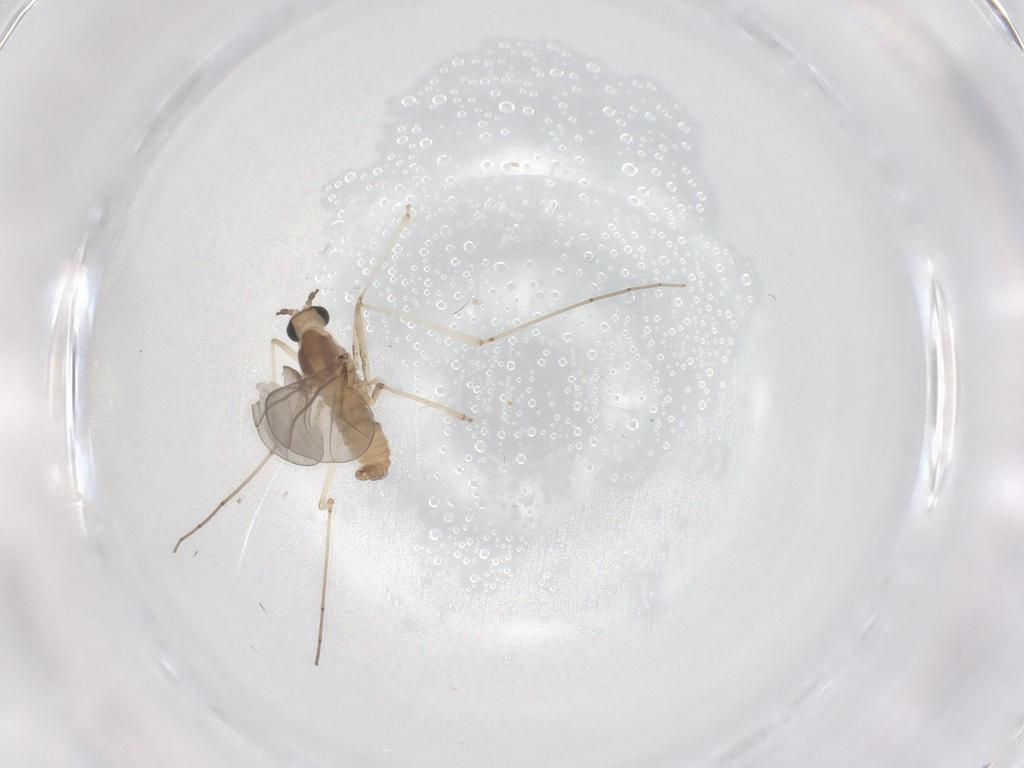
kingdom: Animalia
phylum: Arthropoda
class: Insecta
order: Diptera
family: Cecidomyiidae
